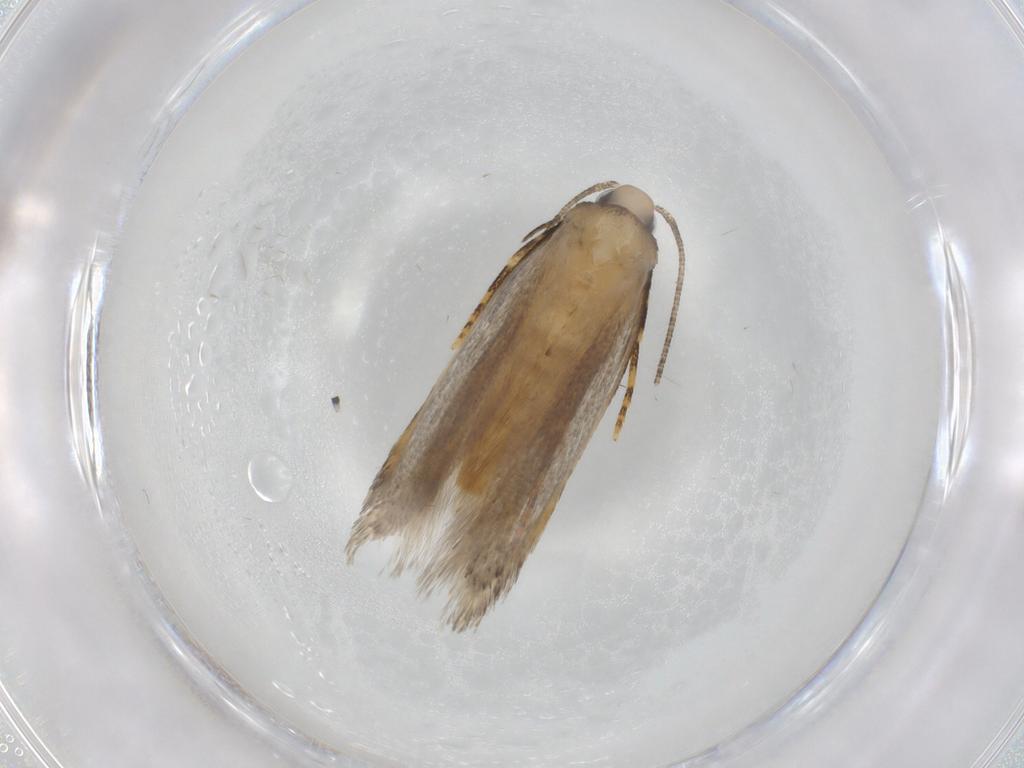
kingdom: Animalia
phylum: Arthropoda
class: Insecta
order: Lepidoptera
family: Autostichidae
